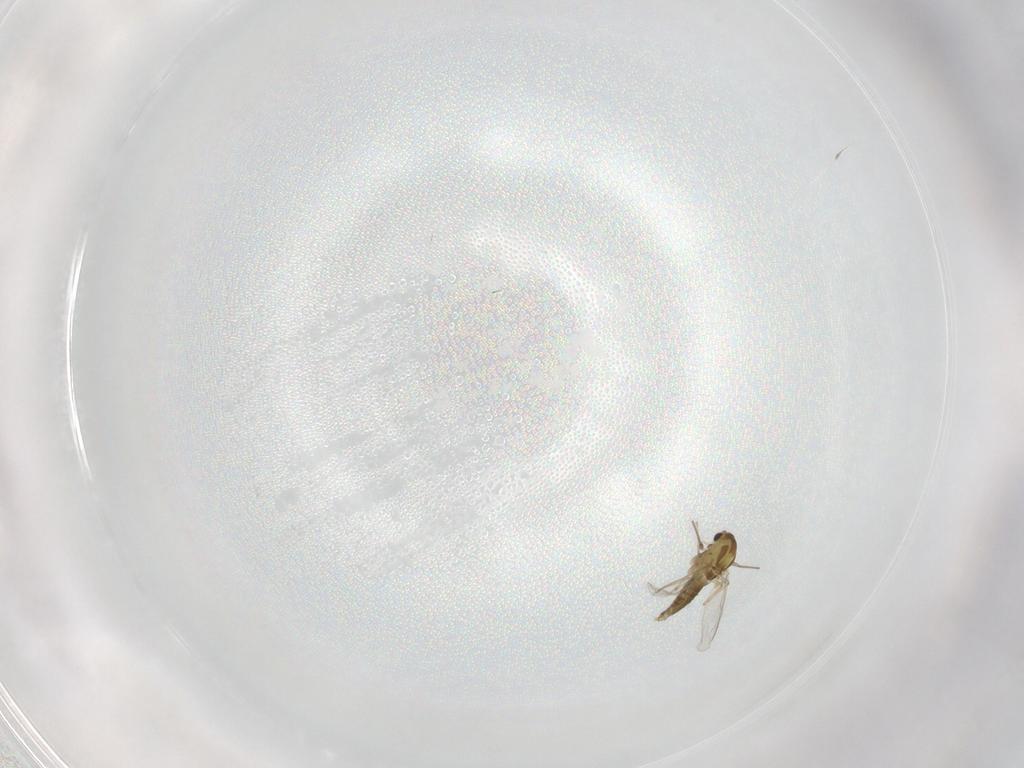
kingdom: Animalia
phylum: Arthropoda
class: Insecta
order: Diptera
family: Chironomidae
